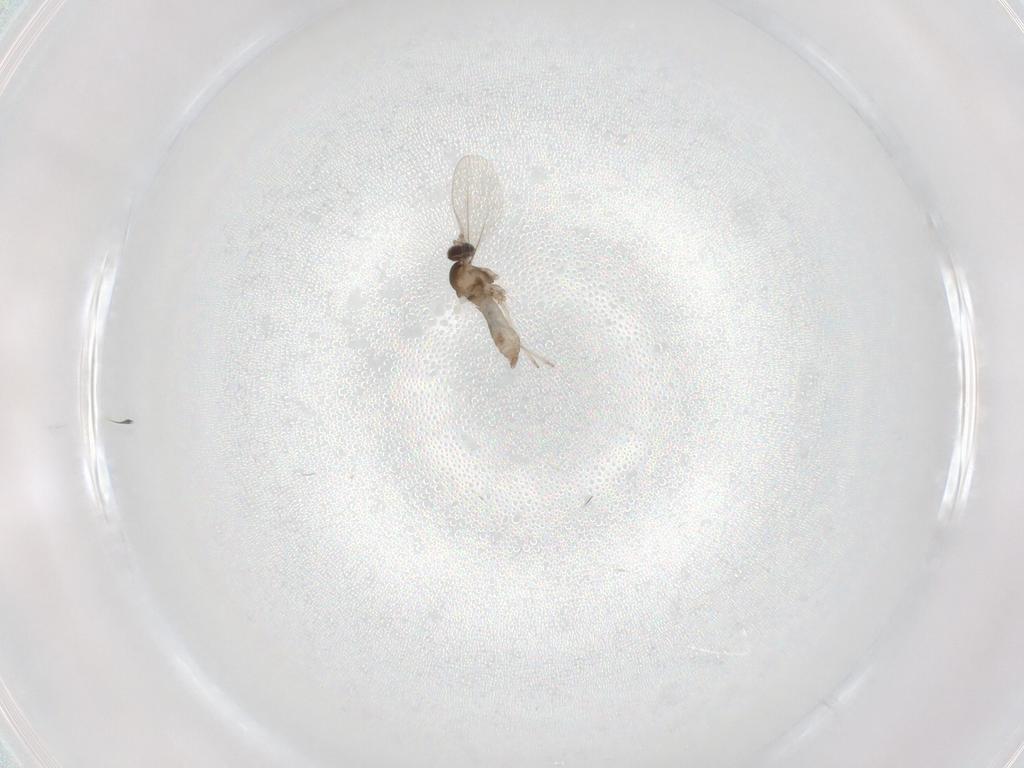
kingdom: Animalia
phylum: Arthropoda
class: Insecta
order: Diptera
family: Cecidomyiidae
